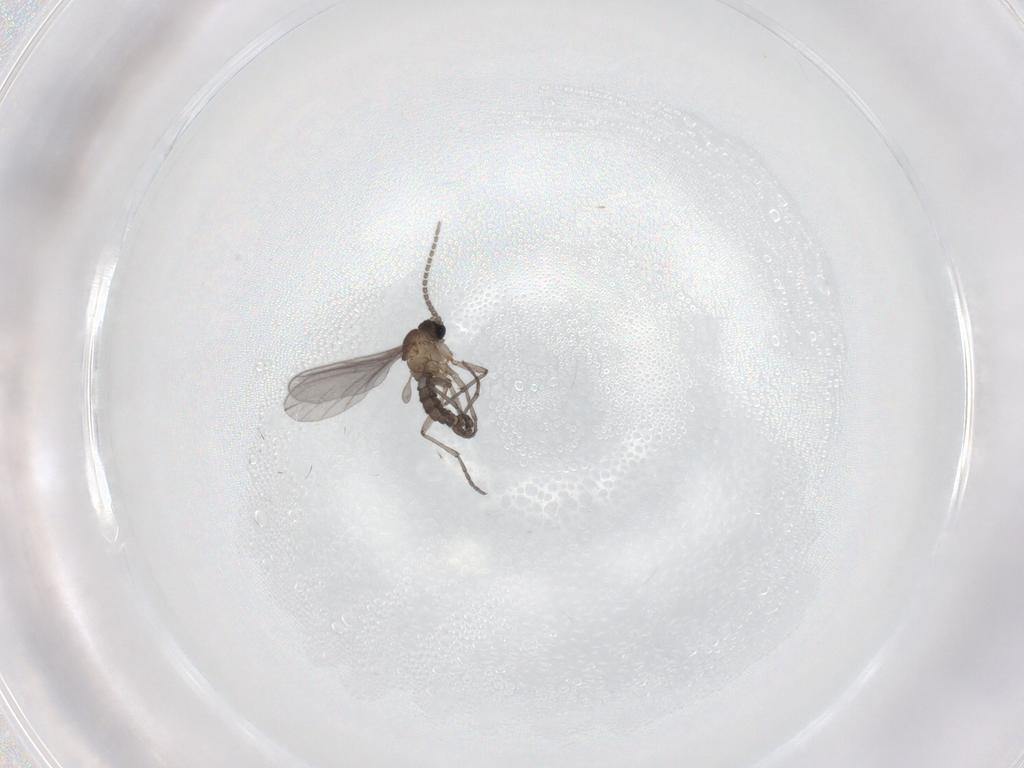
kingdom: Animalia
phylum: Arthropoda
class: Insecta
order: Diptera
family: Sciaridae
